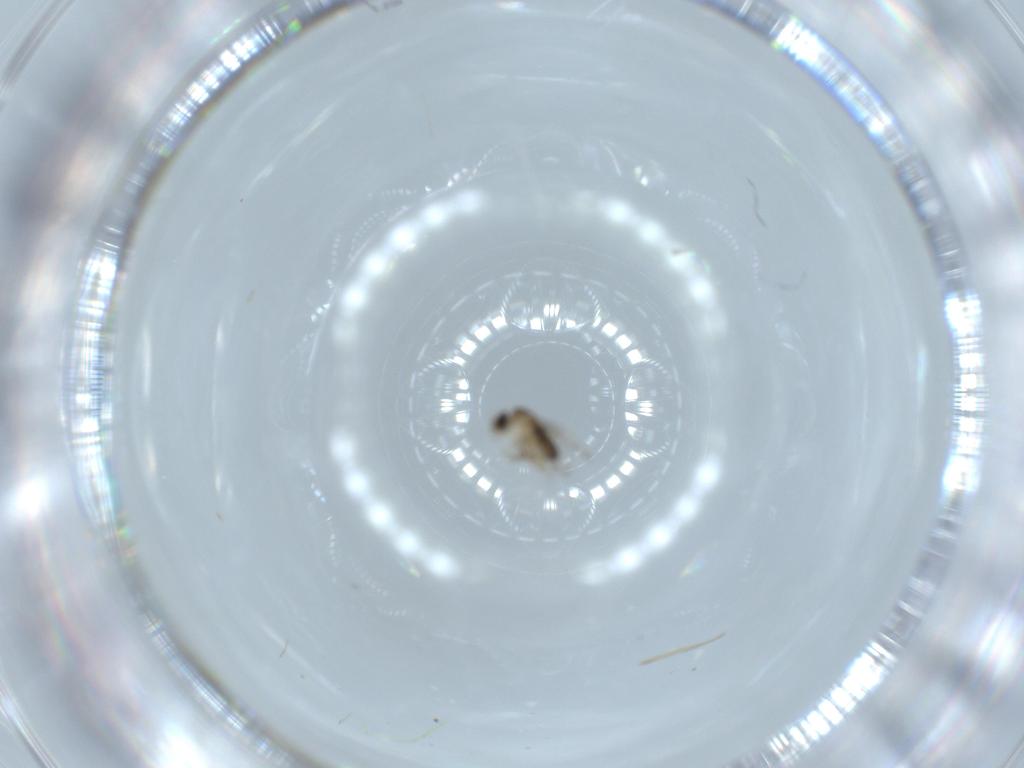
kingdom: Animalia
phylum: Arthropoda
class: Insecta
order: Diptera
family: Phoridae
